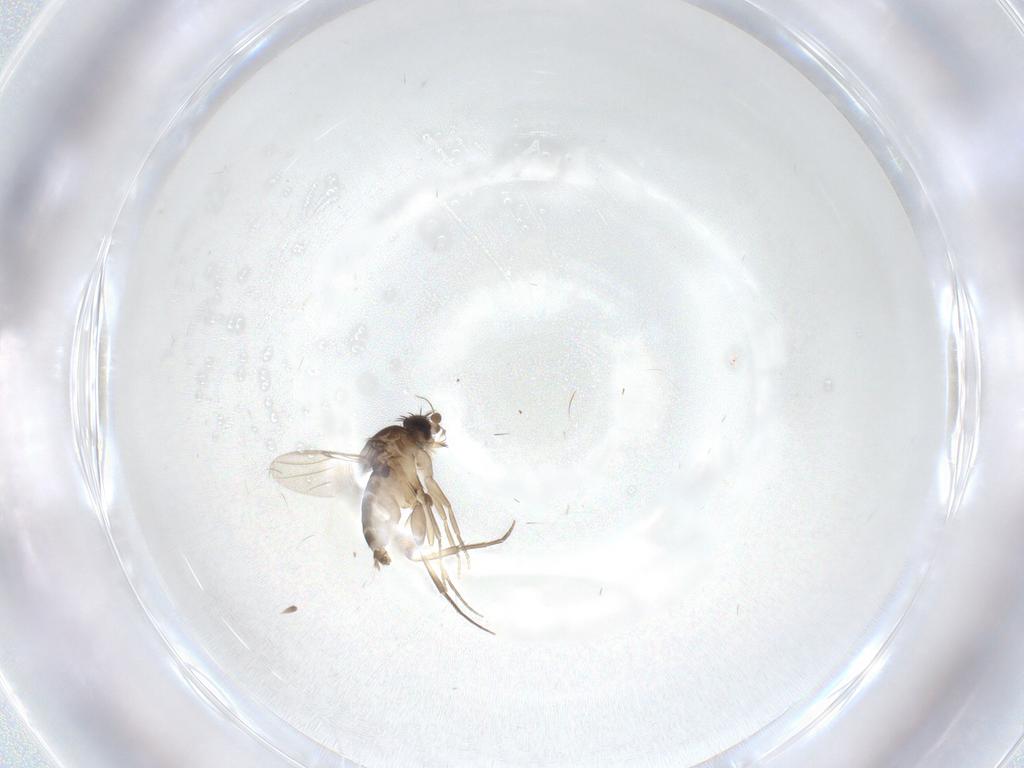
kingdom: Animalia
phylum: Arthropoda
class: Insecta
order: Diptera
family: Phoridae
